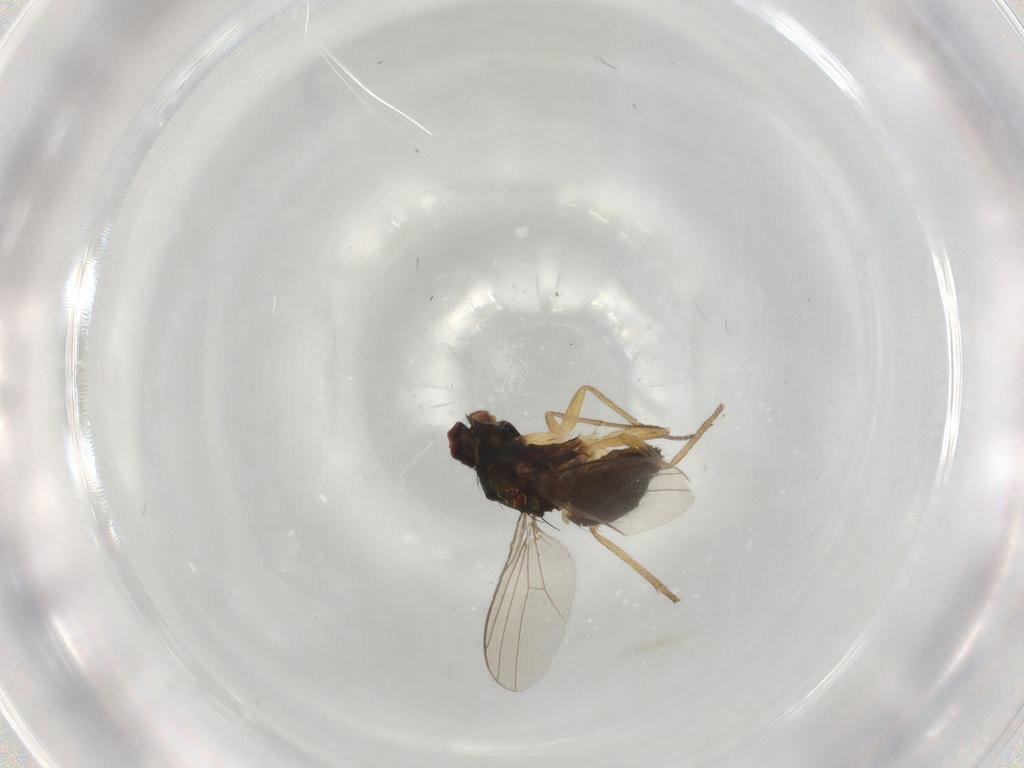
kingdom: Animalia
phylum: Arthropoda
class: Insecta
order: Diptera
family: Dolichopodidae
